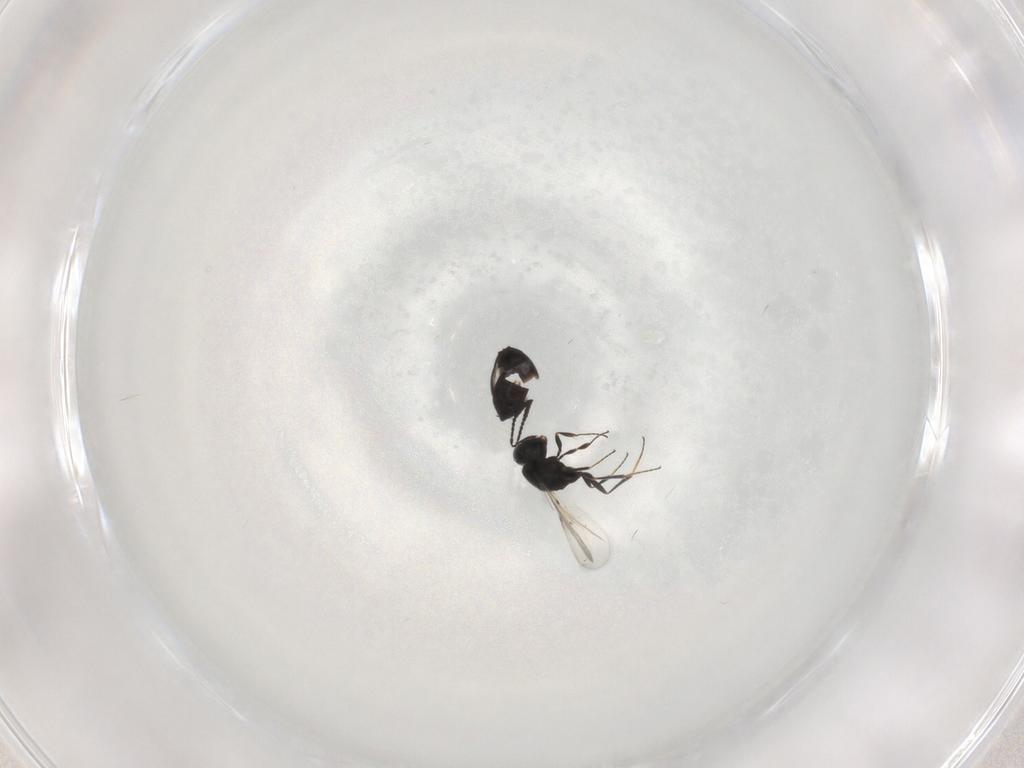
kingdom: Animalia
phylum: Arthropoda
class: Insecta
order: Hymenoptera
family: Scelionidae
